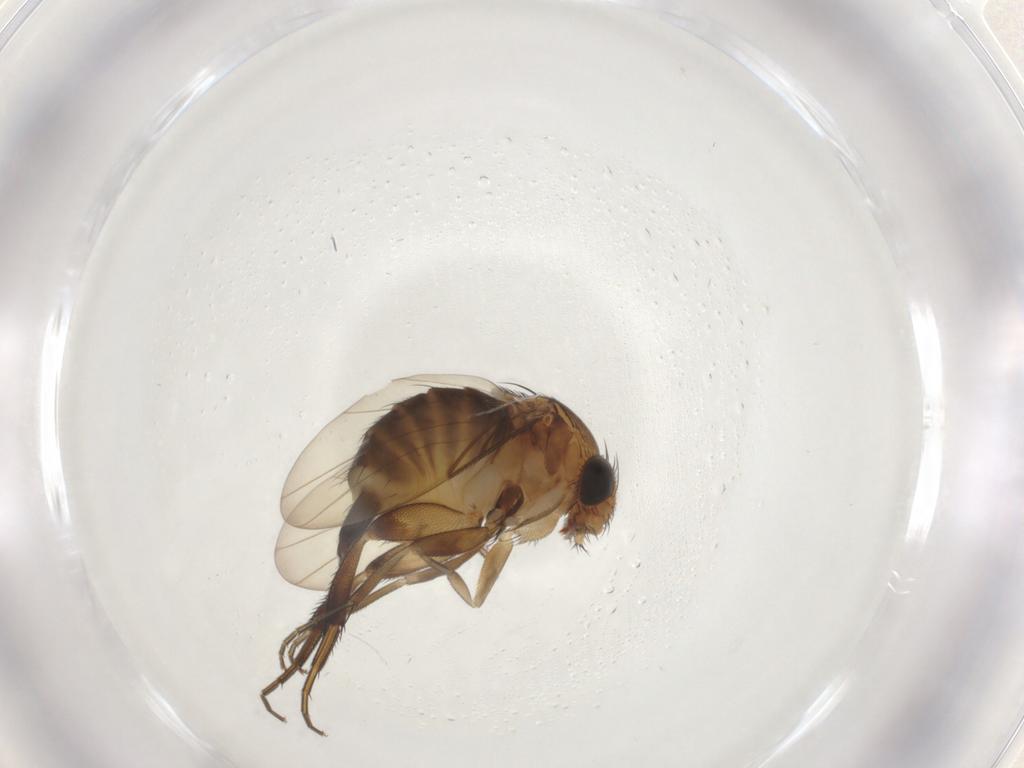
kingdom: Animalia
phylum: Arthropoda
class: Insecta
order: Diptera
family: Phoridae
